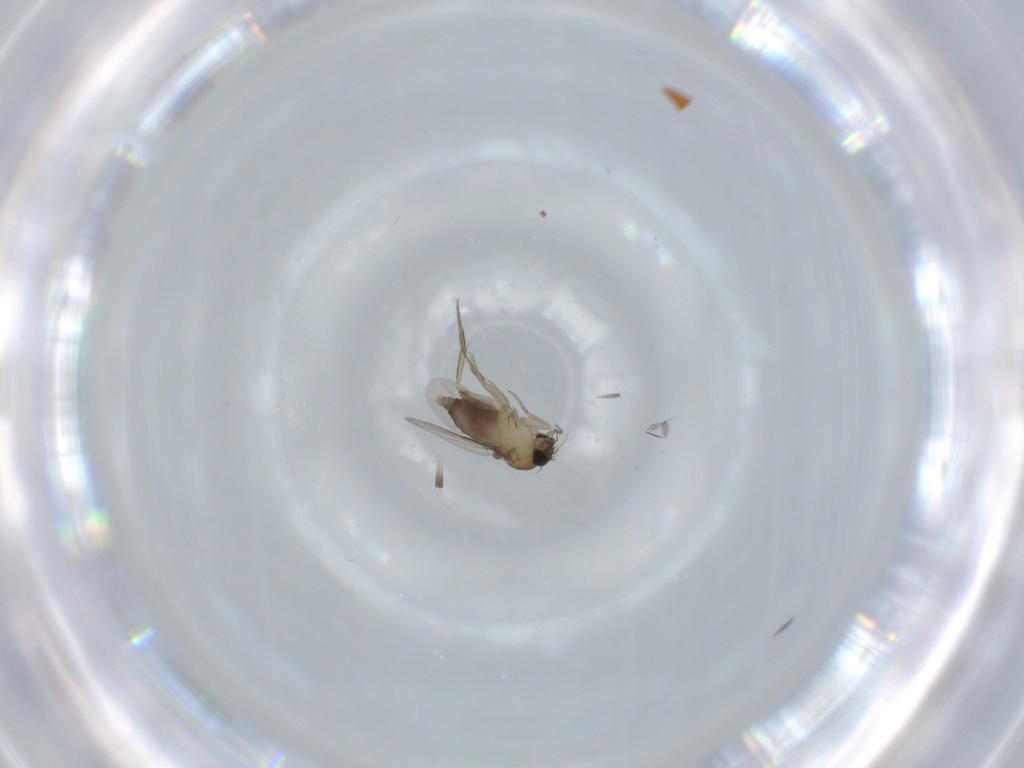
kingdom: Animalia
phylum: Arthropoda
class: Insecta
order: Diptera
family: Phoridae
